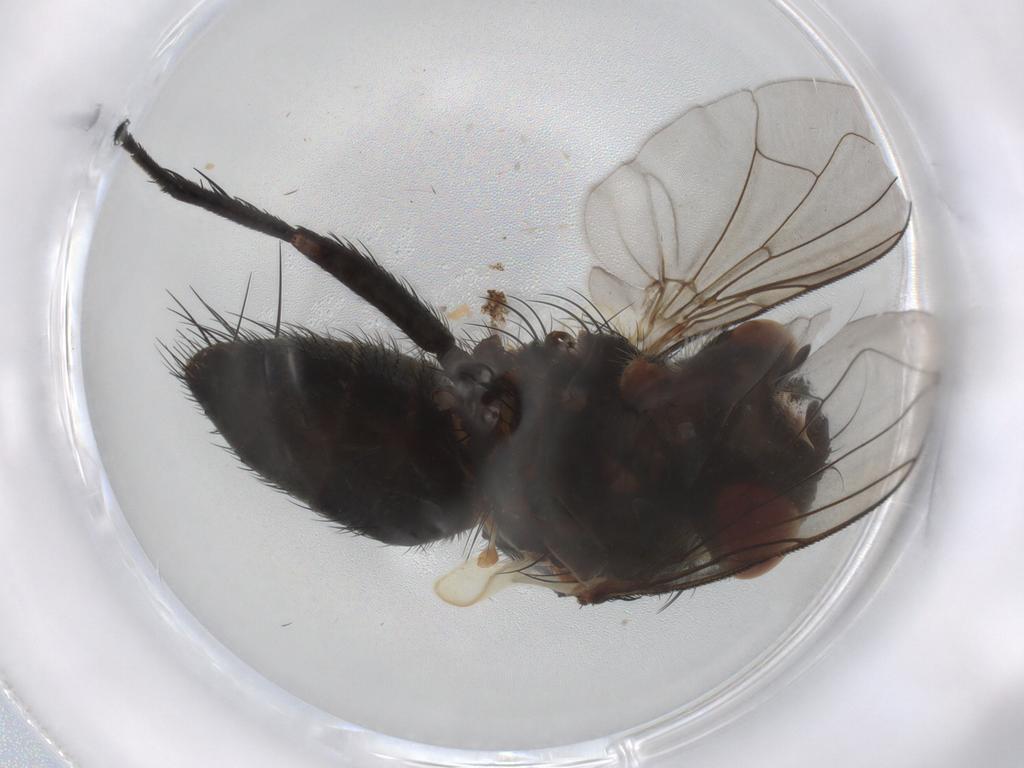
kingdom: Animalia
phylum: Arthropoda
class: Insecta
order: Diptera
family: Tachinidae
